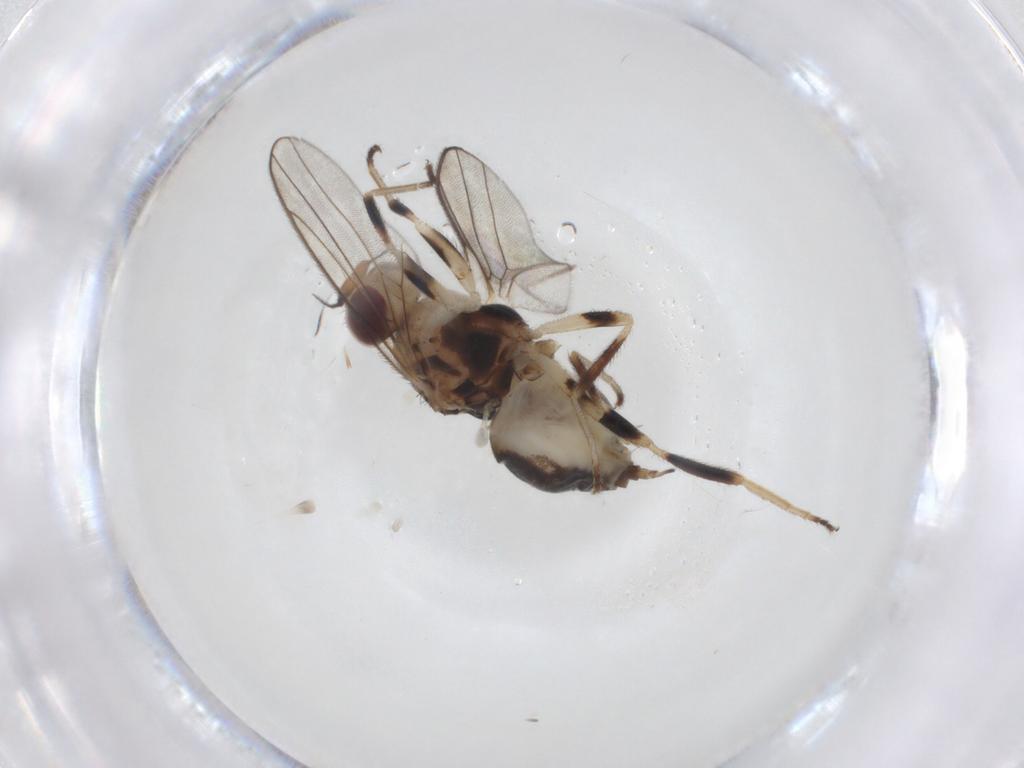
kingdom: Animalia
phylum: Arthropoda
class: Insecta
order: Diptera
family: Chloropidae
